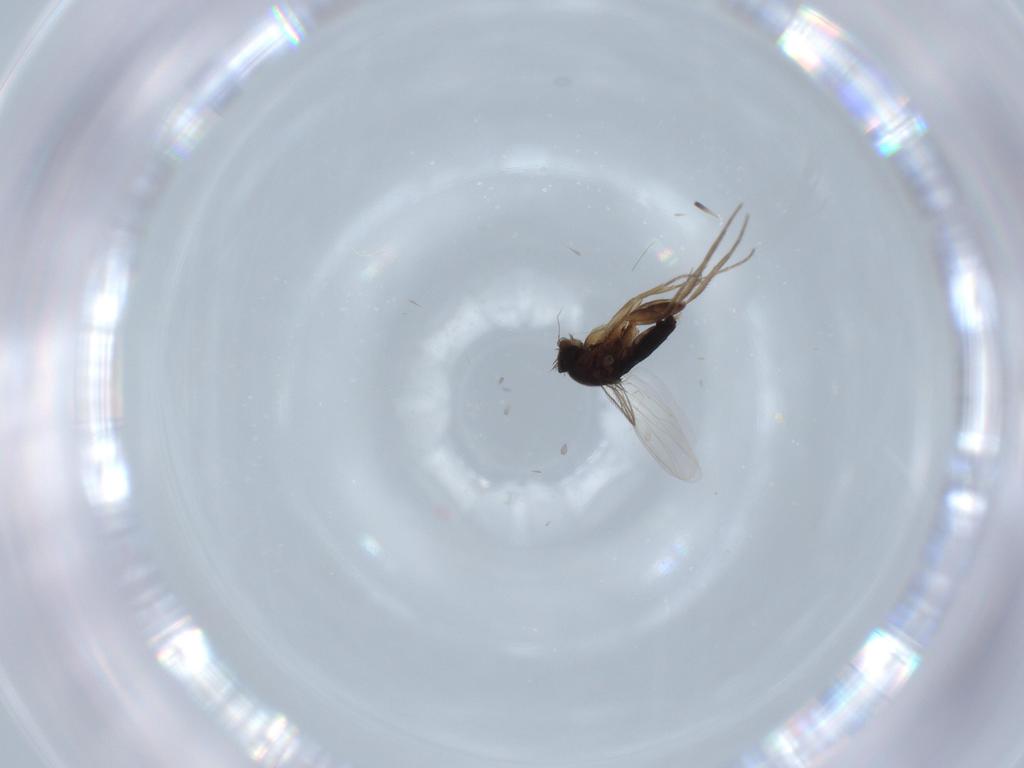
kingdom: Animalia
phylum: Arthropoda
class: Insecta
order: Diptera
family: Phoridae
